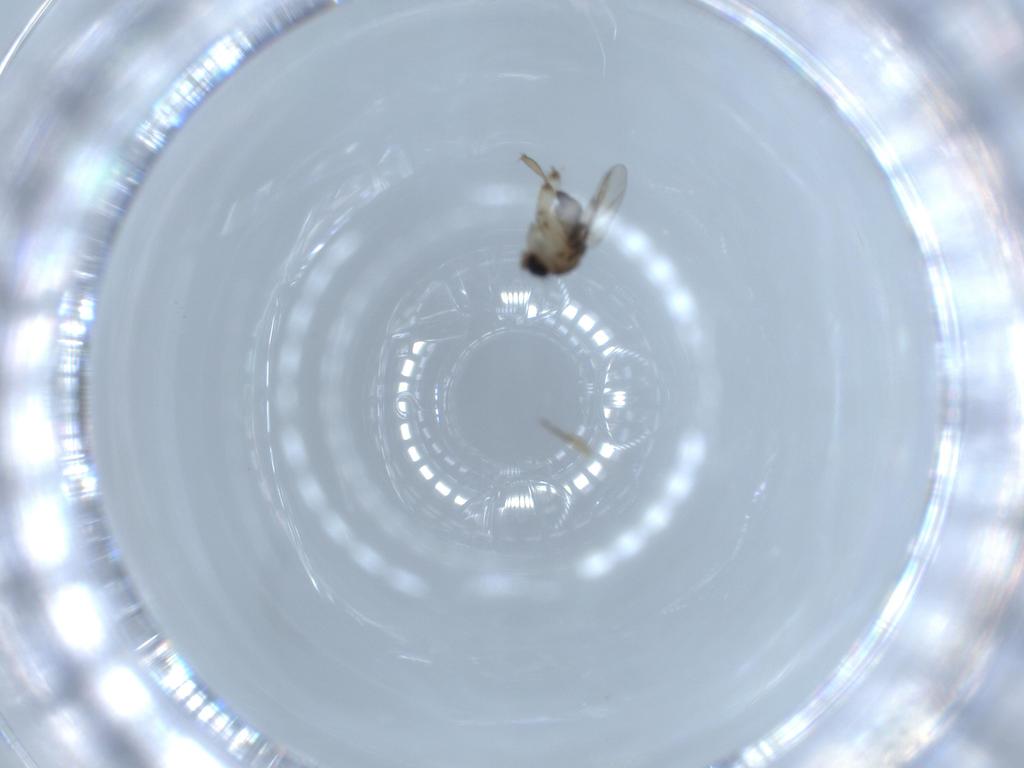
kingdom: Animalia
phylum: Arthropoda
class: Insecta
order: Diptera
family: Phoridae
